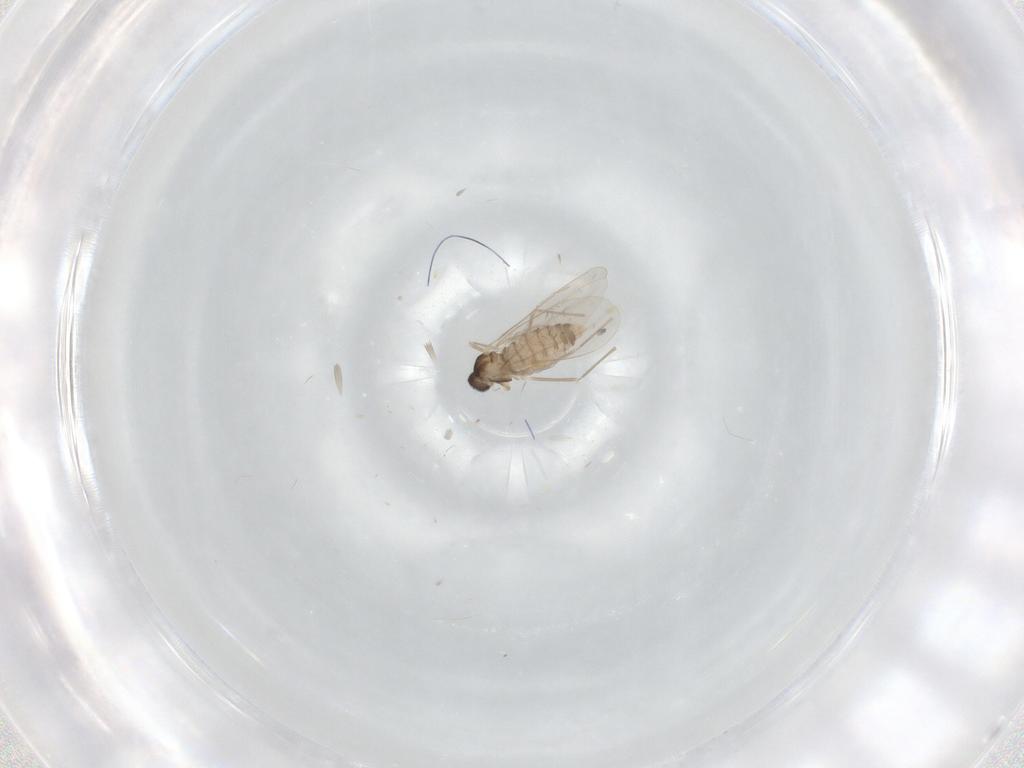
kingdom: Animalia
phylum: Arthropoda
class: Insecta
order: Diptera
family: Cecidomyiidae
